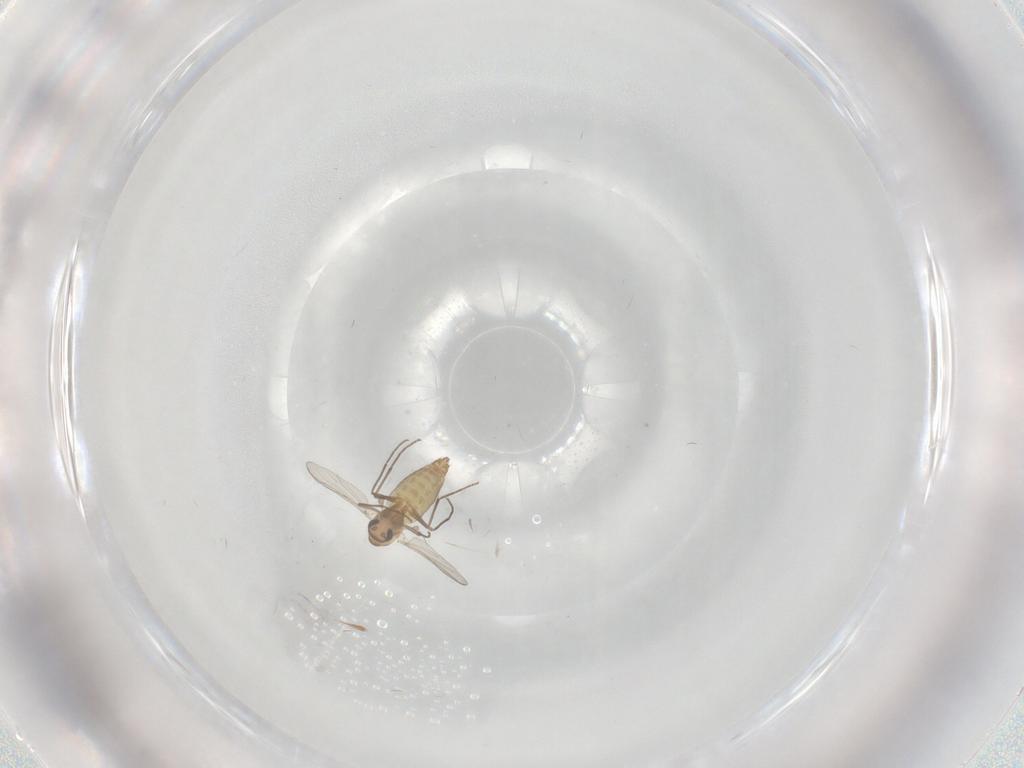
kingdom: Animalia
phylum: Arthropoda
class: Insecta
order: Diptera
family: Chironomidae
